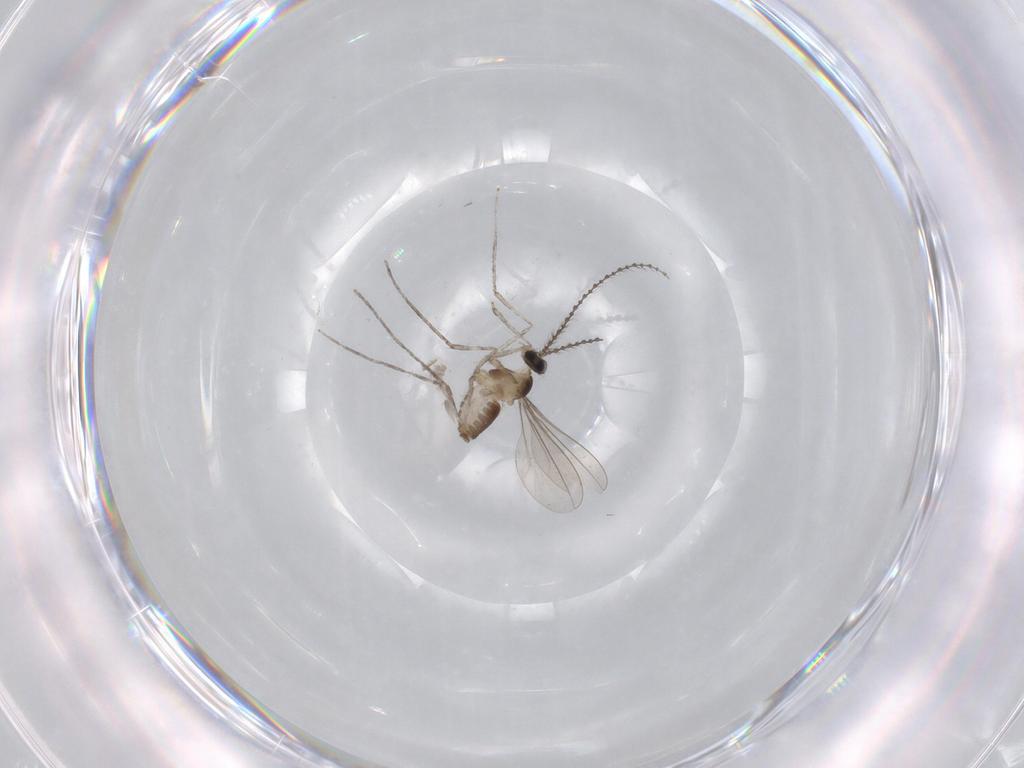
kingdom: Animalia
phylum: Arthropoda
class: Insecta
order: Diptera
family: Cecidomyiidae
